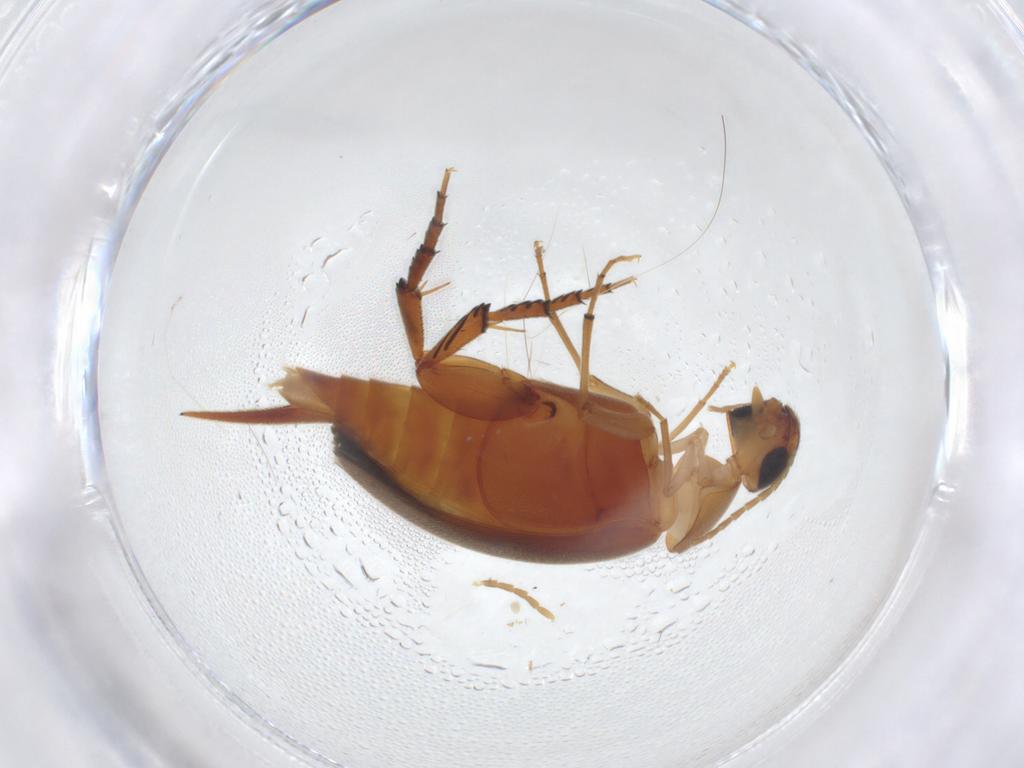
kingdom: Animalia
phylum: Arthropoda
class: Insecta
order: Coleoptera
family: Mordellidae
